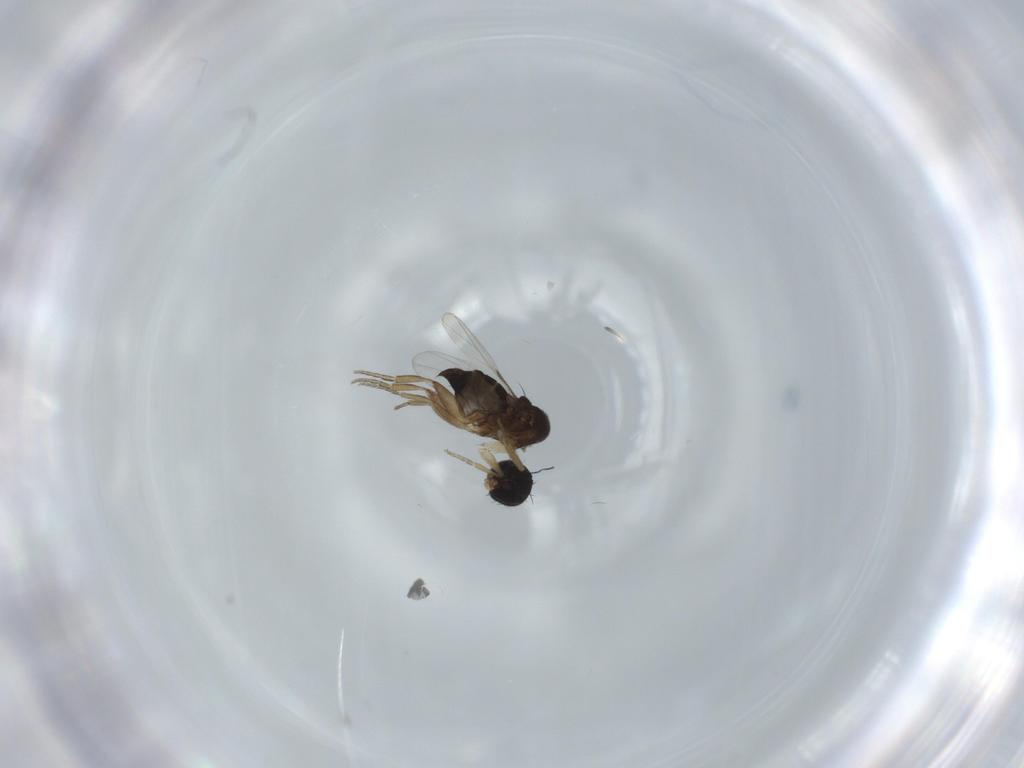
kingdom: Animalia
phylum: Arthropoda
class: Insecta
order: Diptera
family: Phoridae
